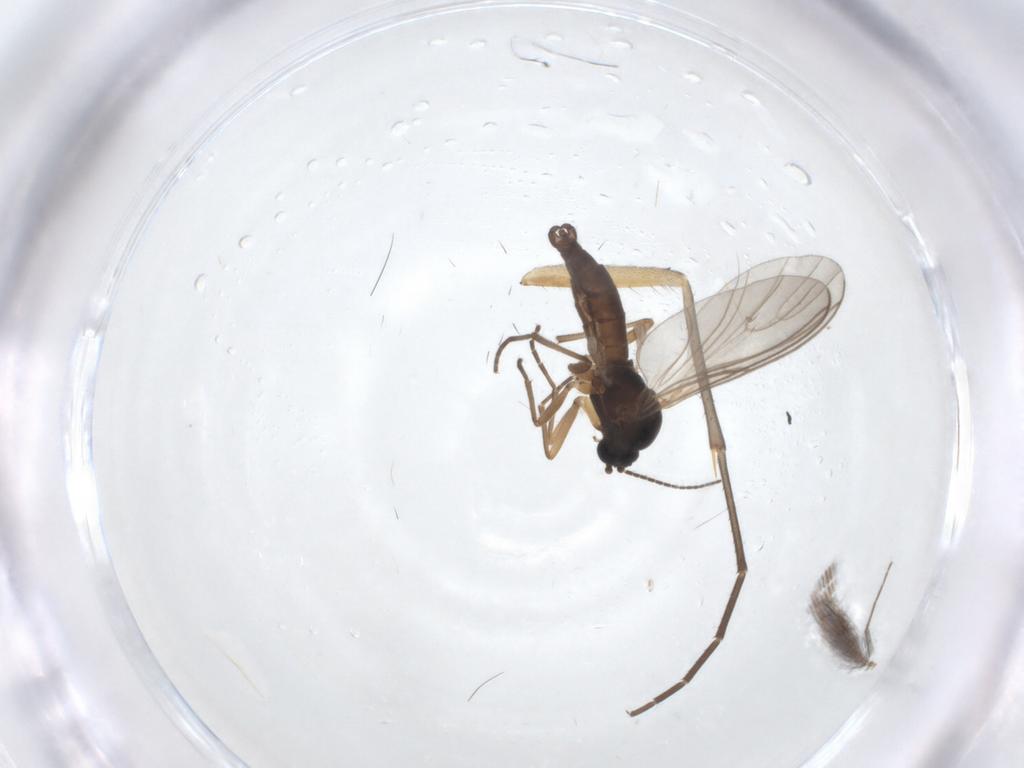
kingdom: Animalia
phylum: Arthropoda
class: Insecta
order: Diptera
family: Sciaridae
